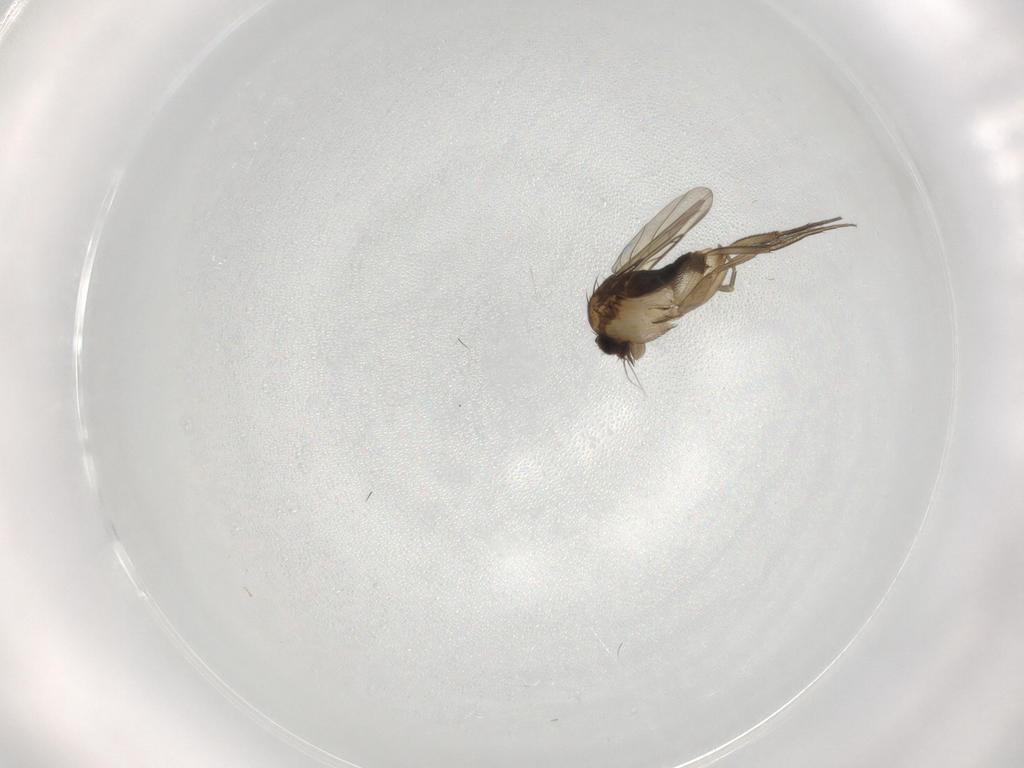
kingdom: Animalia
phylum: Arthropoda
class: Insecta
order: Diptera
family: Phoridae
